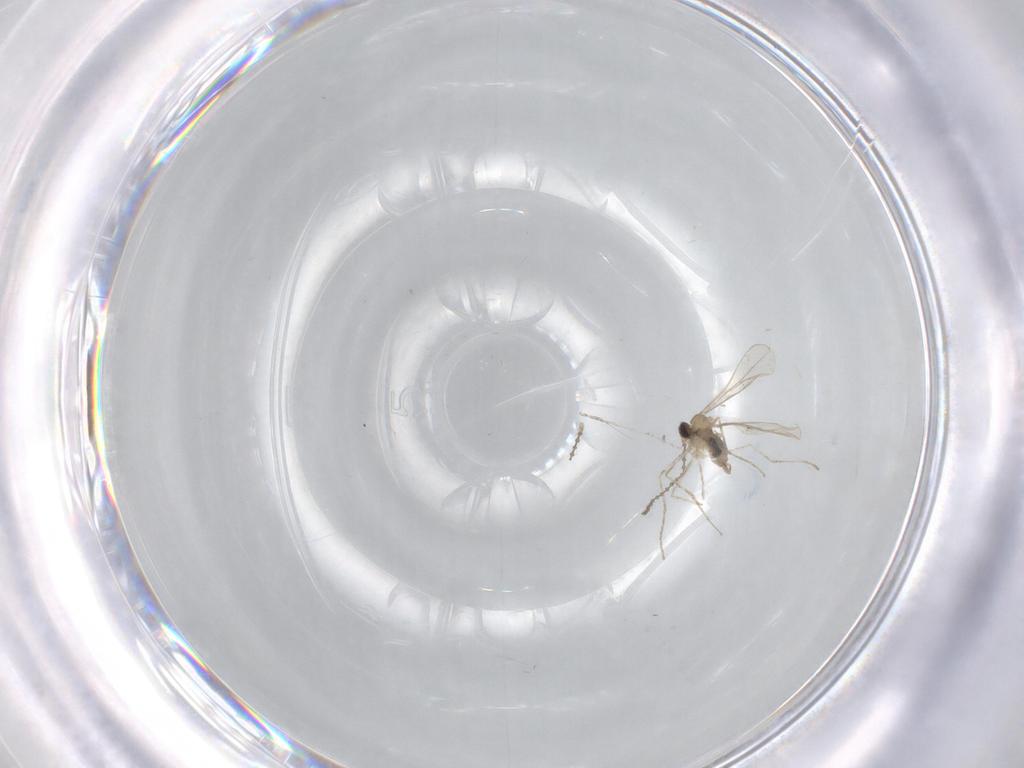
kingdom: Animalia
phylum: Arthropoda
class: Insecta
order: Diptera
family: Cecidomyiidae
